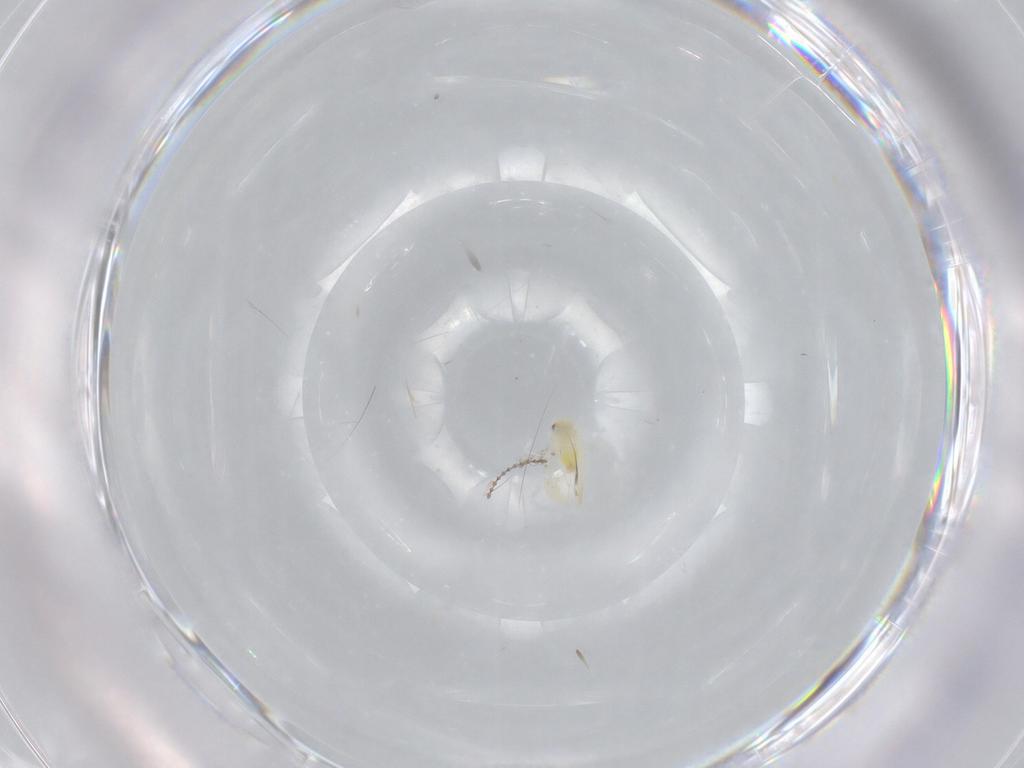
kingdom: Animalia
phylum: Arthropoda
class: Insecta
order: Hemiptera
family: Aleyrodidae
